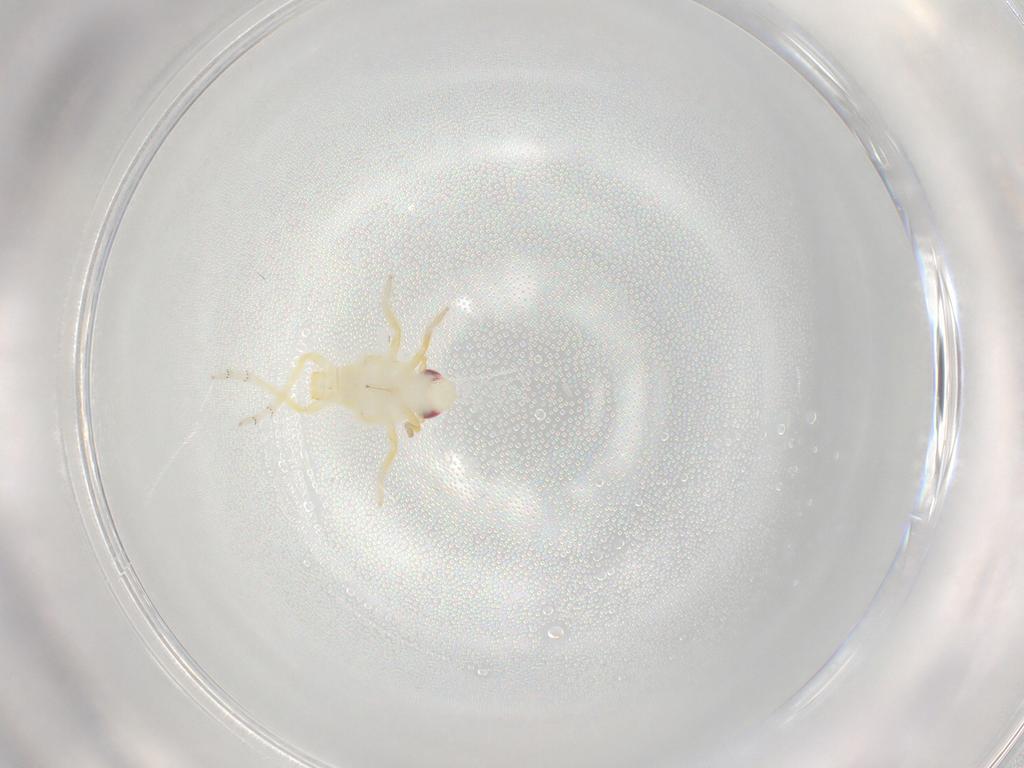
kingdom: Animalia
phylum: Arthropoda
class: Insecta
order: Hemiptera
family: Fulgoroidea_incertae_sedis
